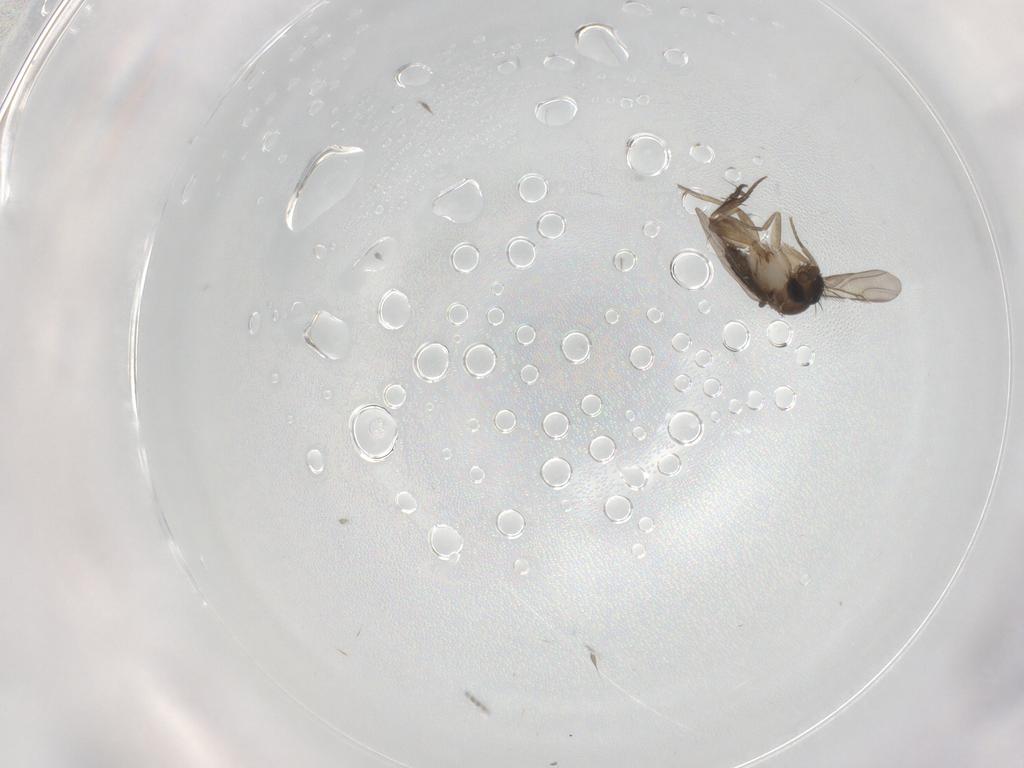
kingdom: Animalia
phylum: Arthropoda
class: Insecta
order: Diptera
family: Phoridae
